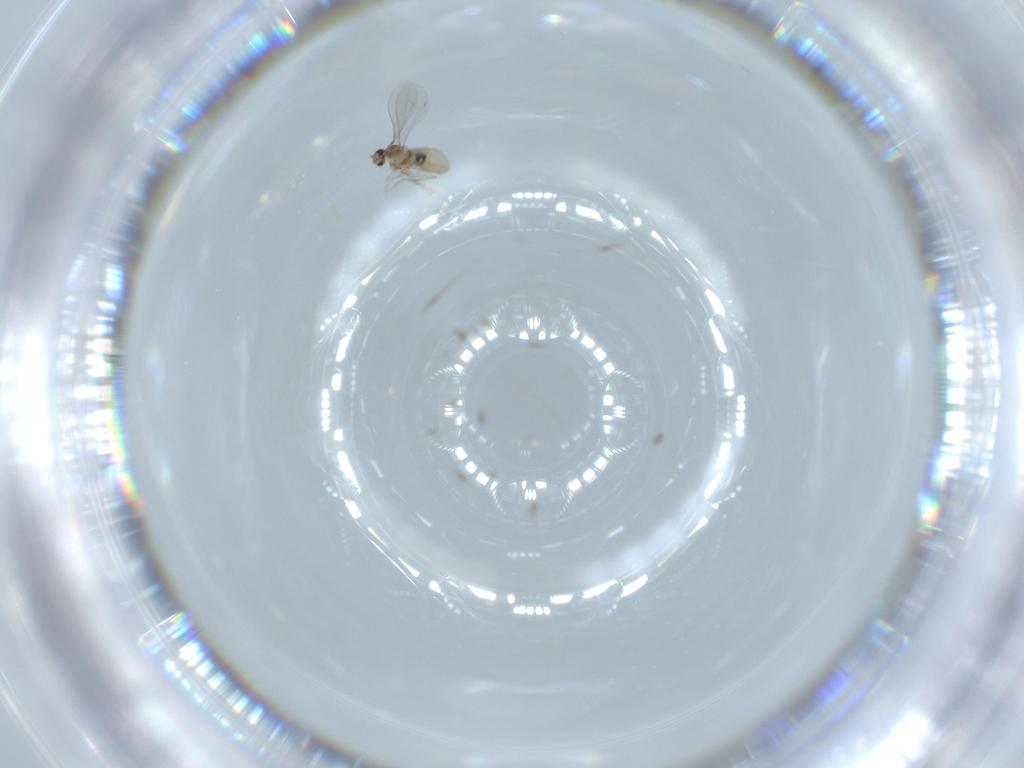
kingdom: Animalia
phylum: Arthropoda
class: Insecta
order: Diptera
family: Cecidomyiidae
